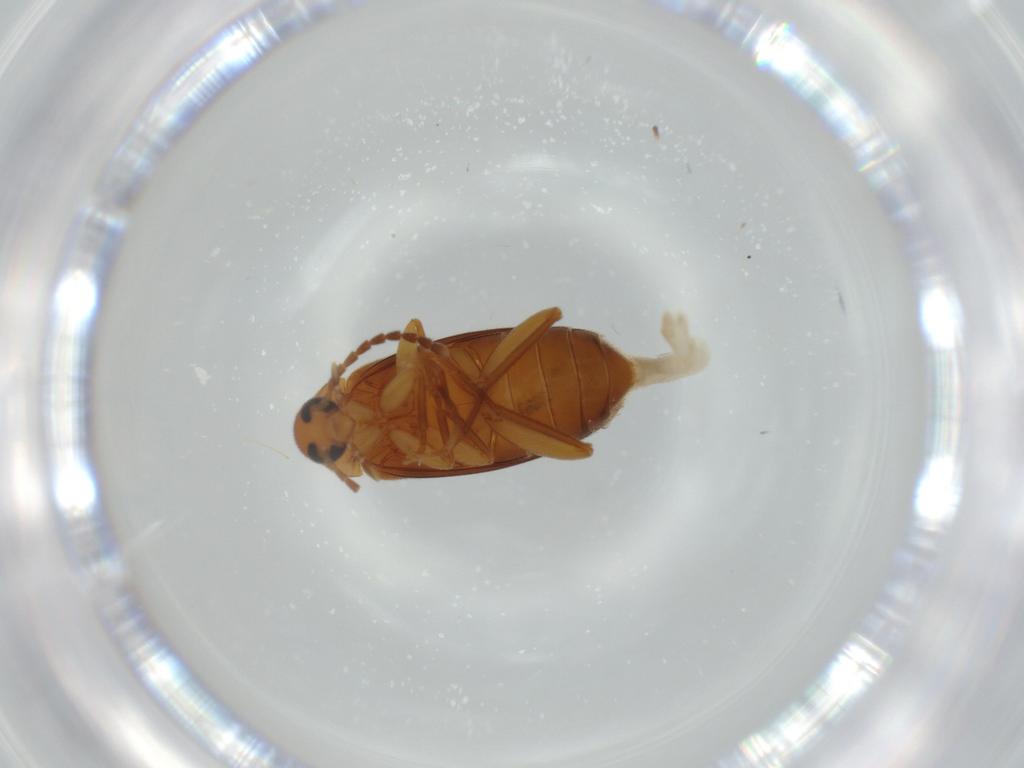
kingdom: Animalia
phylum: Arthropoda
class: Insecta
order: Coleoptera
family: Scraptiidae
